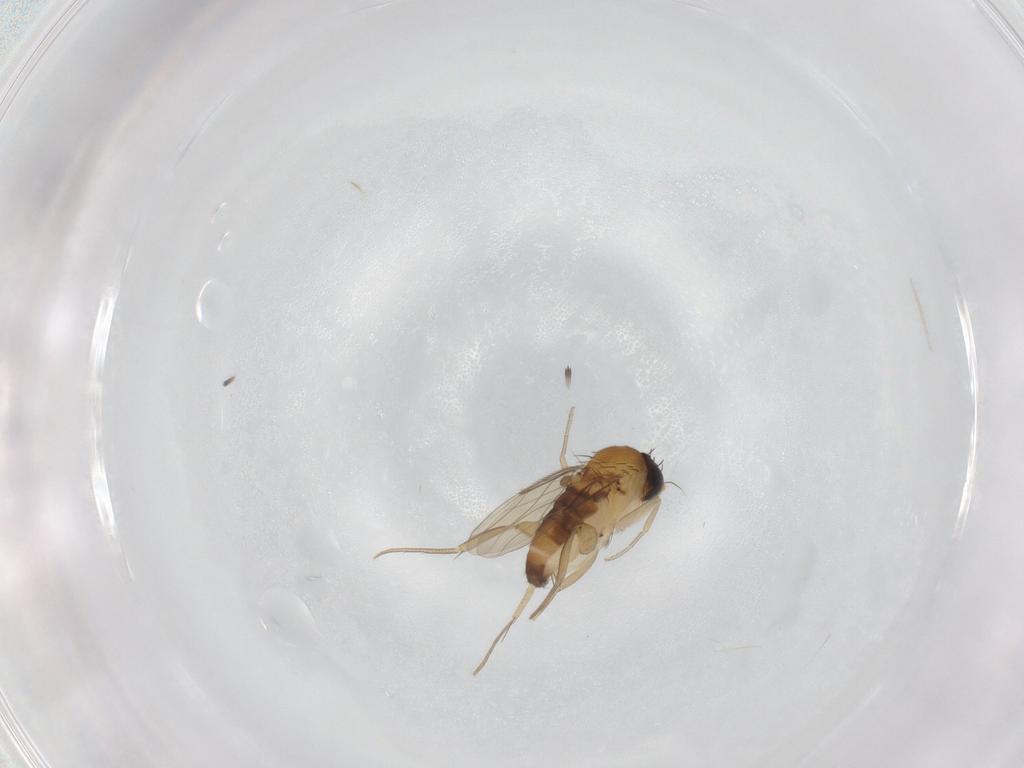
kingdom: Animalia
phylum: Arthropoda
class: Insecta
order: Diptera
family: Phoridae
